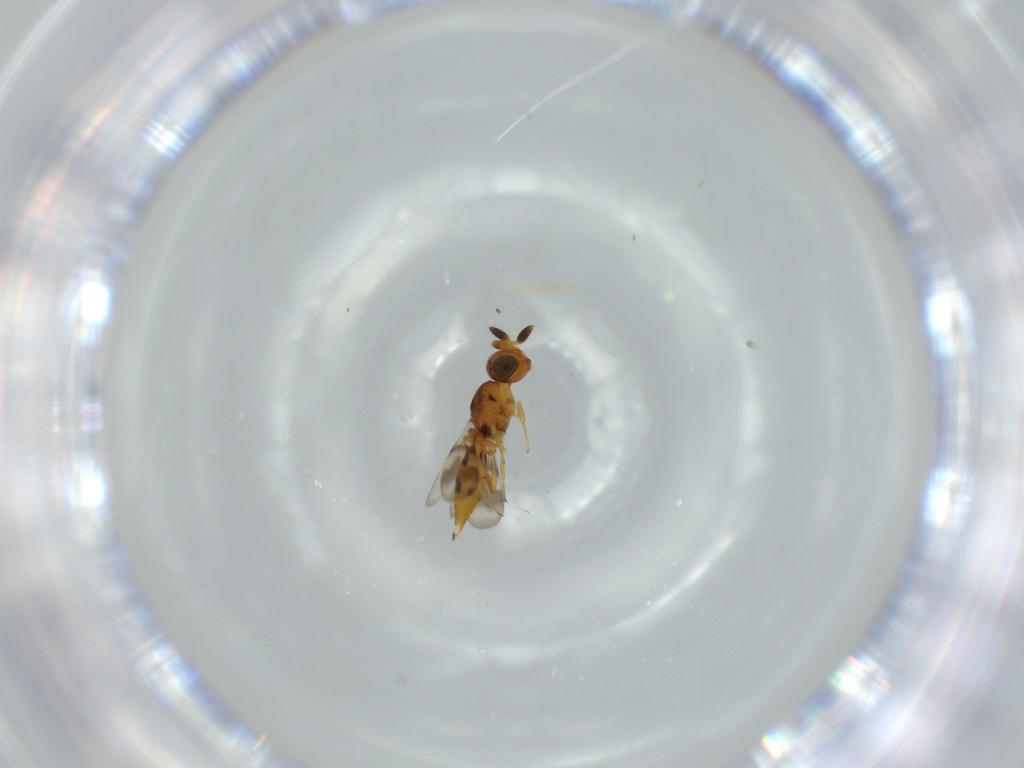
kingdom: Animalia
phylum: Arthropoda
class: Insecta
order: Hymenoptera
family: Scelionidae
